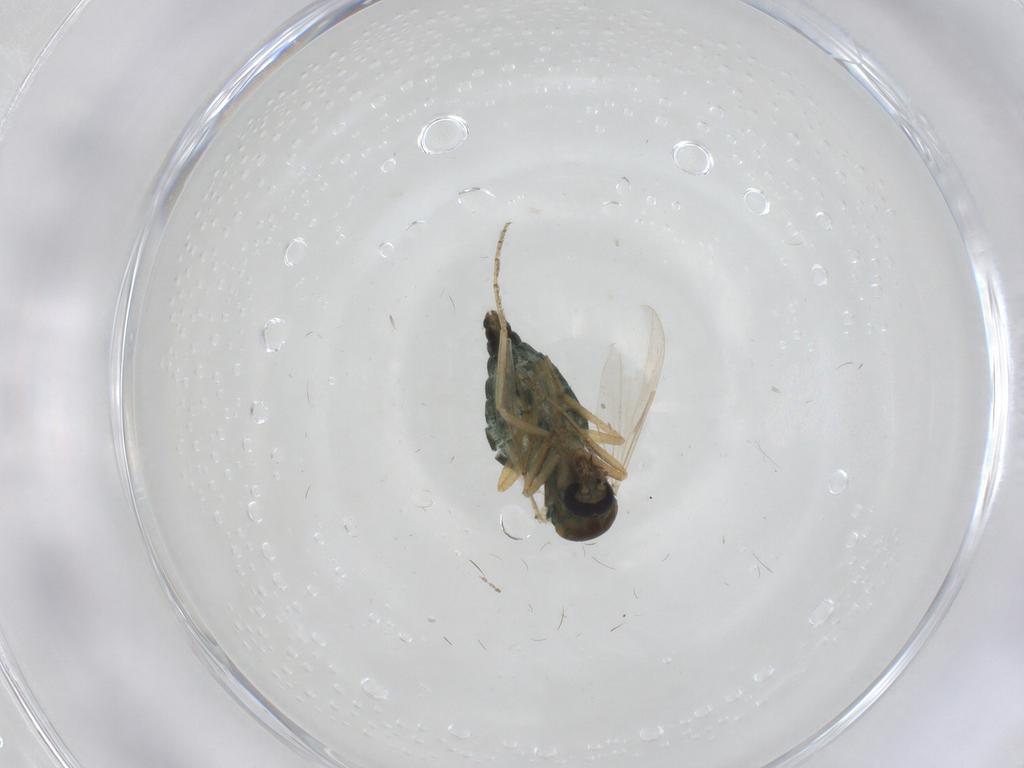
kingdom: Animalia
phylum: Arthropoda
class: Insecta
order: Diptera
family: Ceratopogonidae
